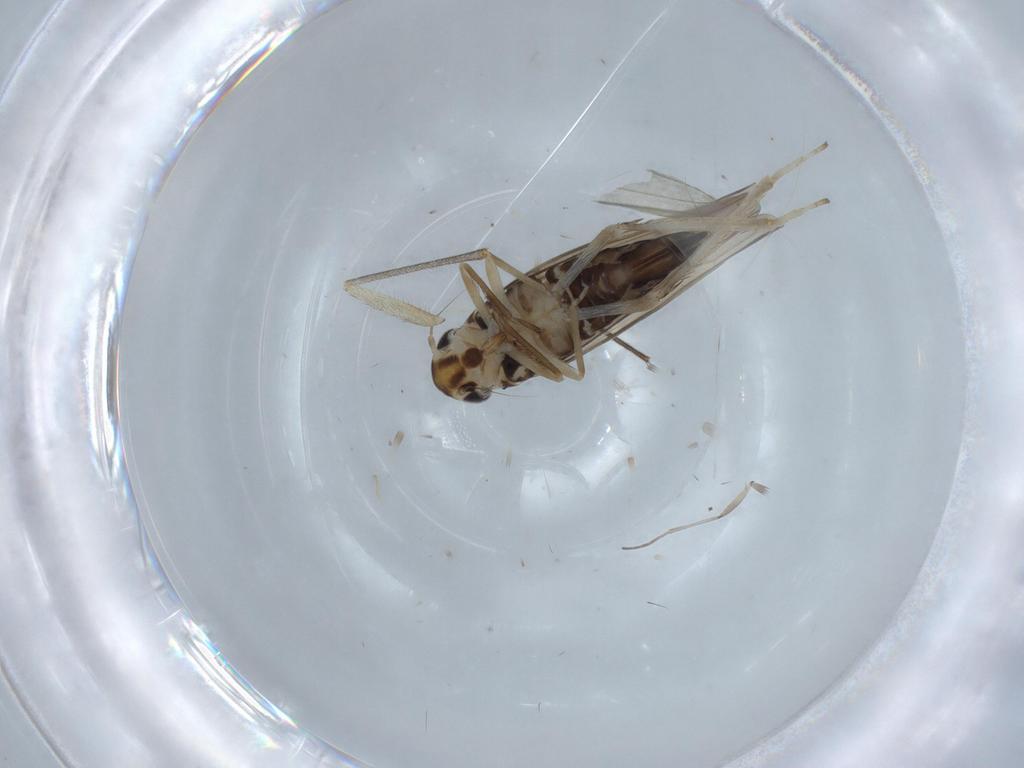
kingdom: Animalia
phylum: Arthropoda
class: Insecta
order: Hemiptera
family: Cicadellidae
